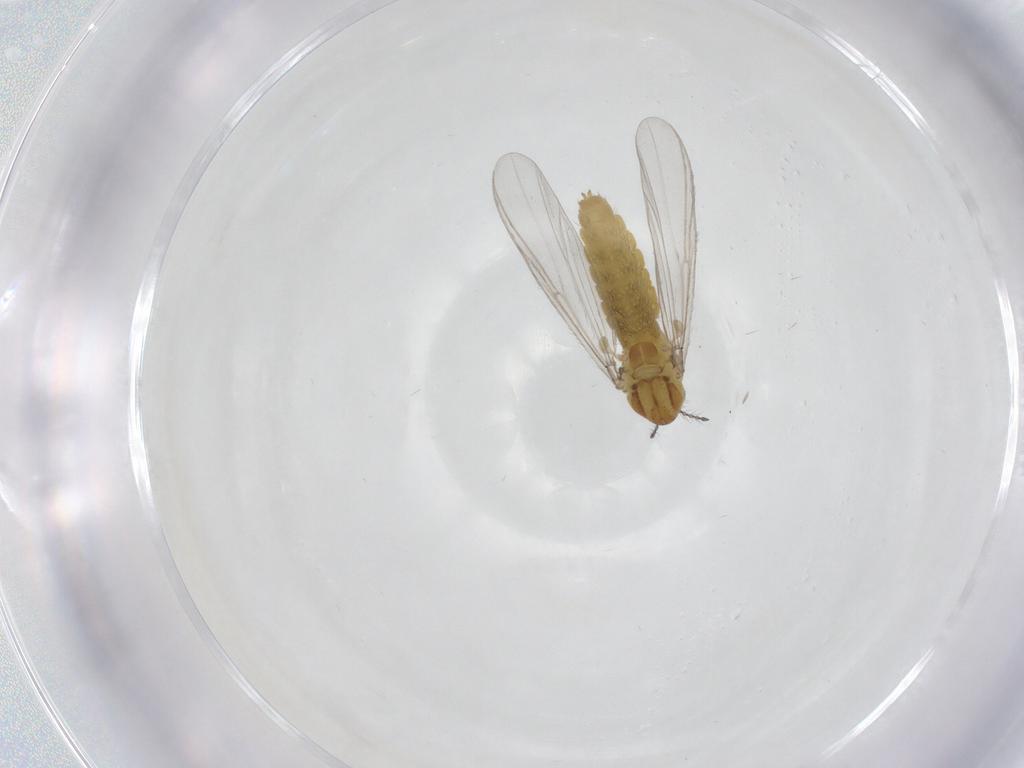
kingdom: Animalia
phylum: Arthropoda
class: Insecta
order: Diptera
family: Chironomidae
